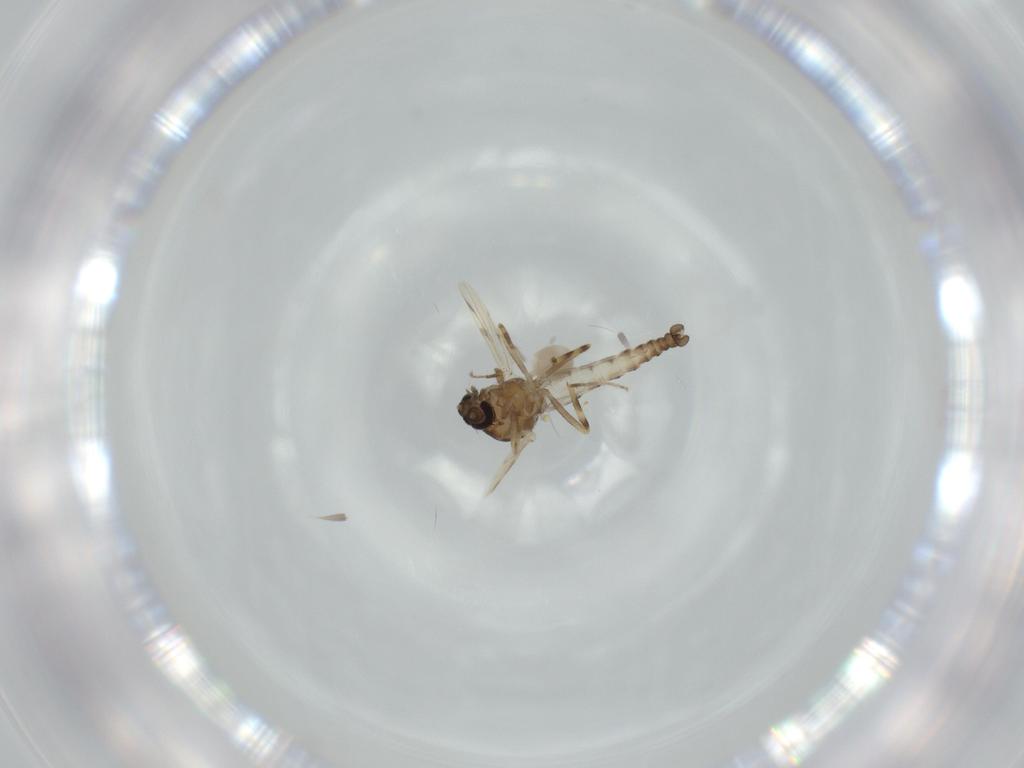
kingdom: Animalia
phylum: Arthropoda
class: Insecta
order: Diptera
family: Ceratopogonidae
